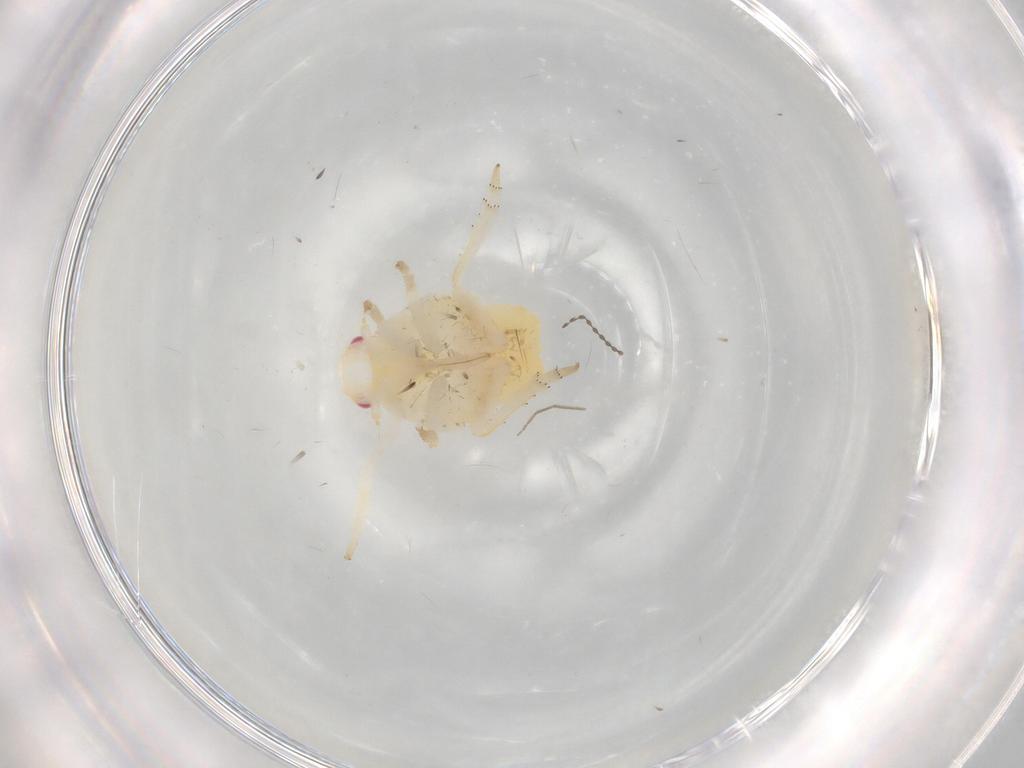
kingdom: Animalia
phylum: Arthropoda
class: Insecta
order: Hemiptera
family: Flatidae
